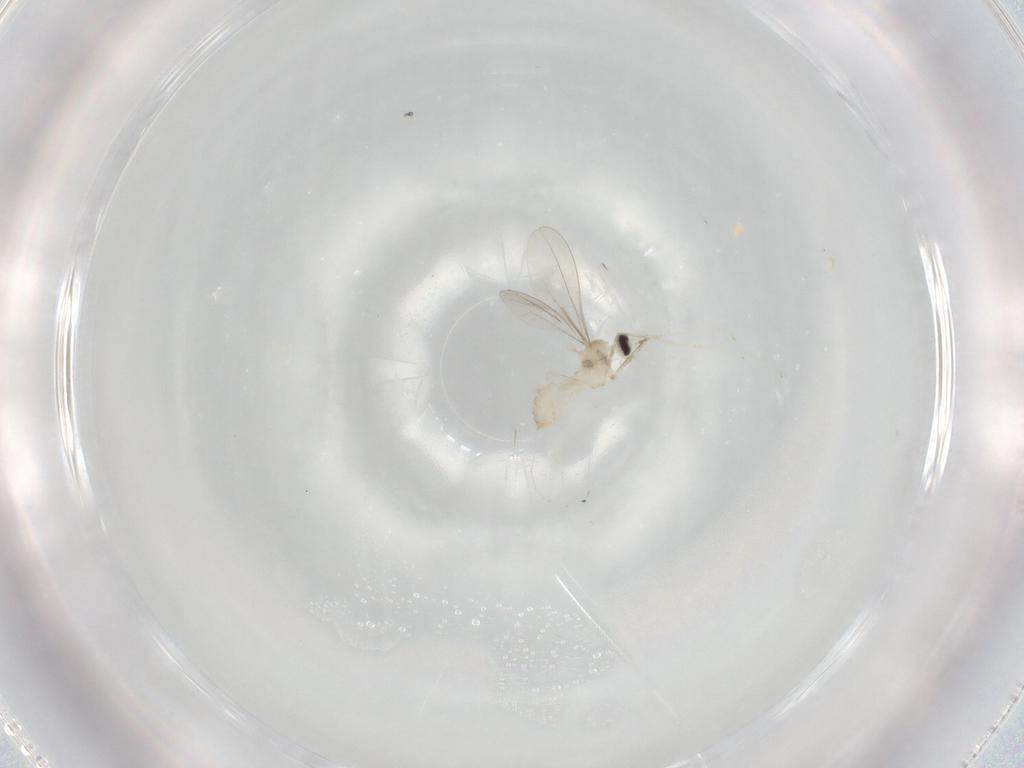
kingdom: Animalia
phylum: Arthropoda
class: Insecta
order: Diptera
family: Cecidomyiidae
